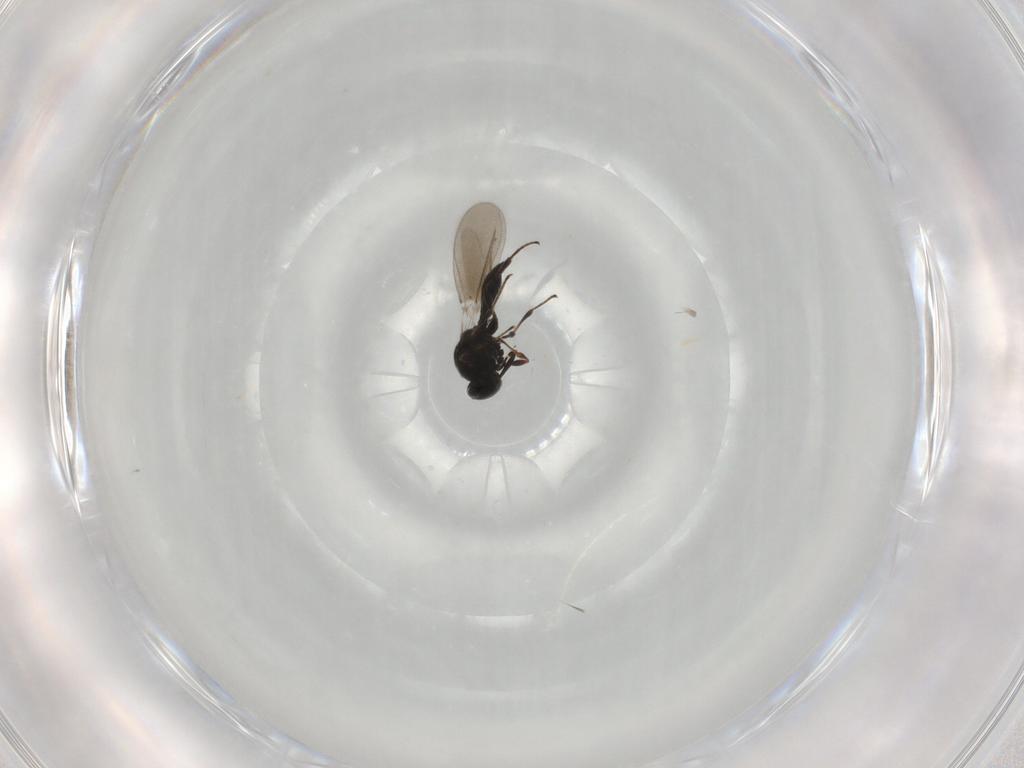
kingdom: Animalia
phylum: Arthropoda
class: Insecta
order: Hymenoptera
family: Platygastridae
